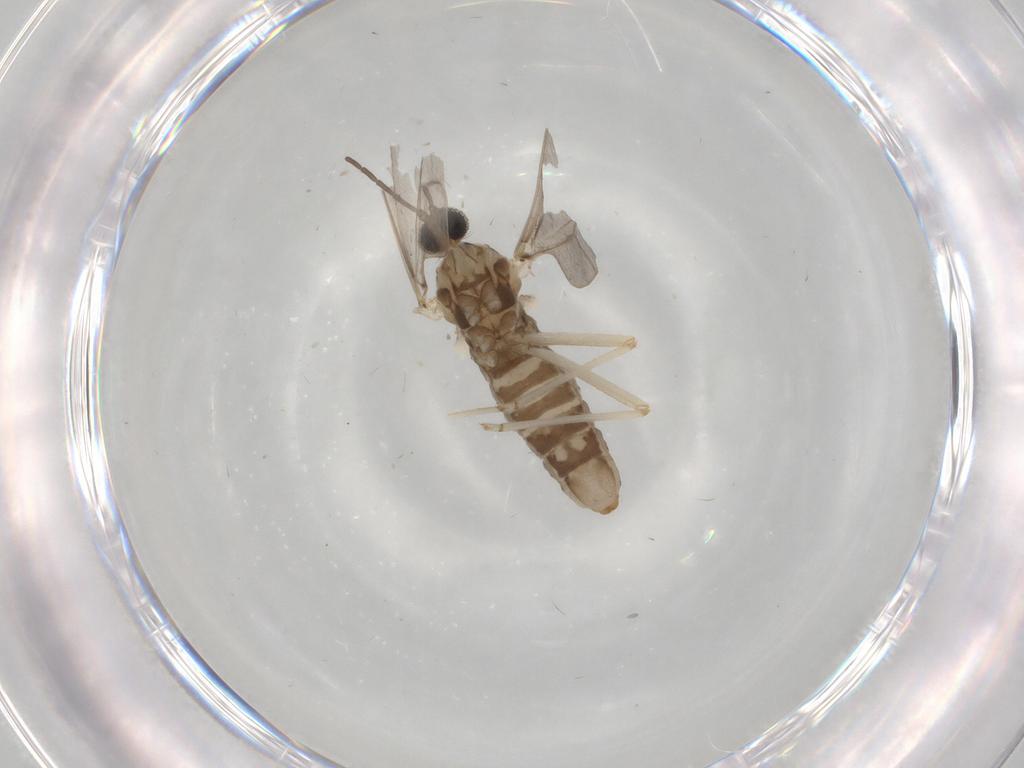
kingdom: Animalia
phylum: Arthropoda
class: Insecta
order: Diptera
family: Cecidomyiidae
